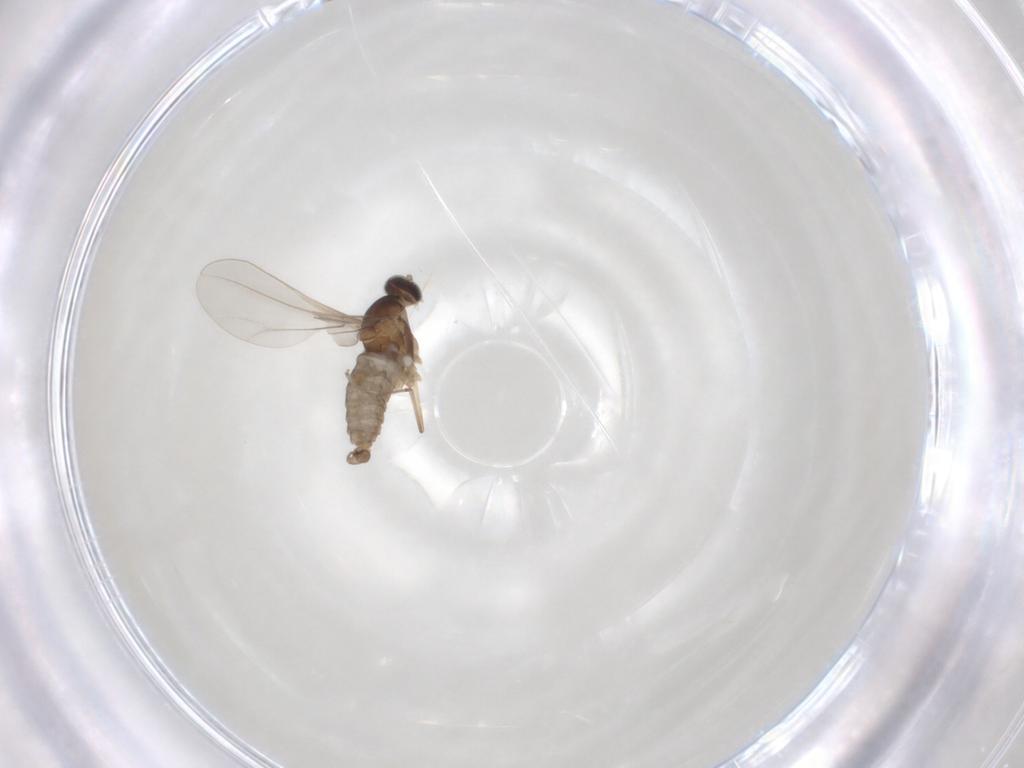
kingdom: Animalia
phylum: Arthropoda
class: Insecta
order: Diptera
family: Cecidomyiidae
